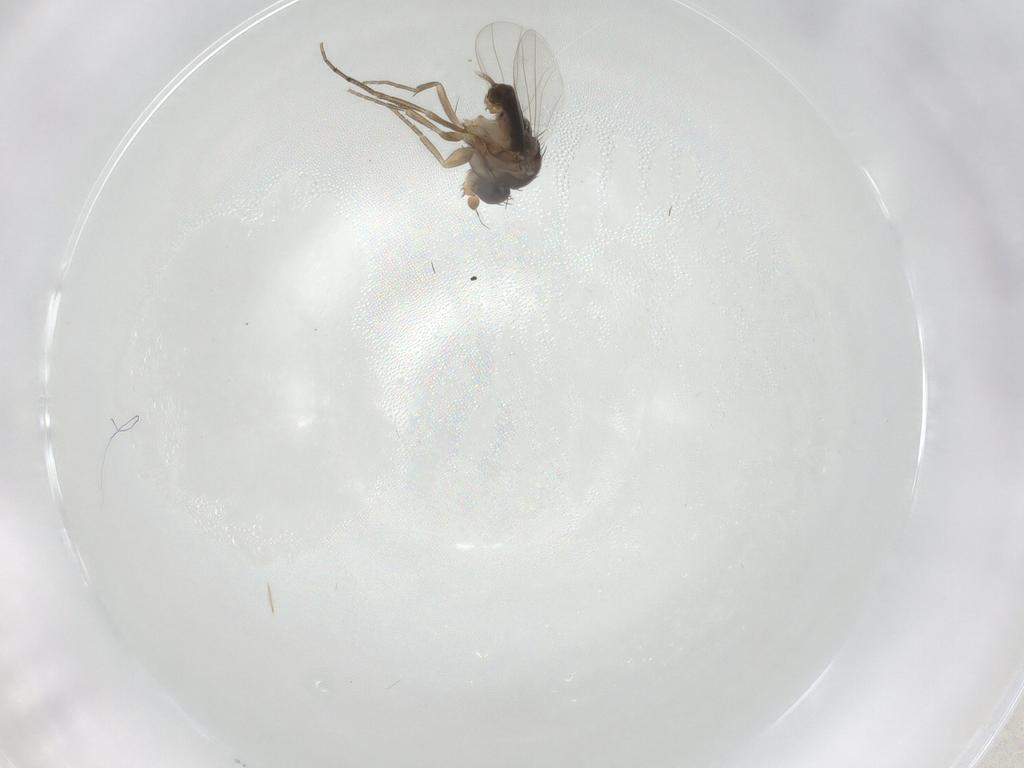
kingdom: Animalia
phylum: Arthropoda
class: Insecta
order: Diptera
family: Phoridae
